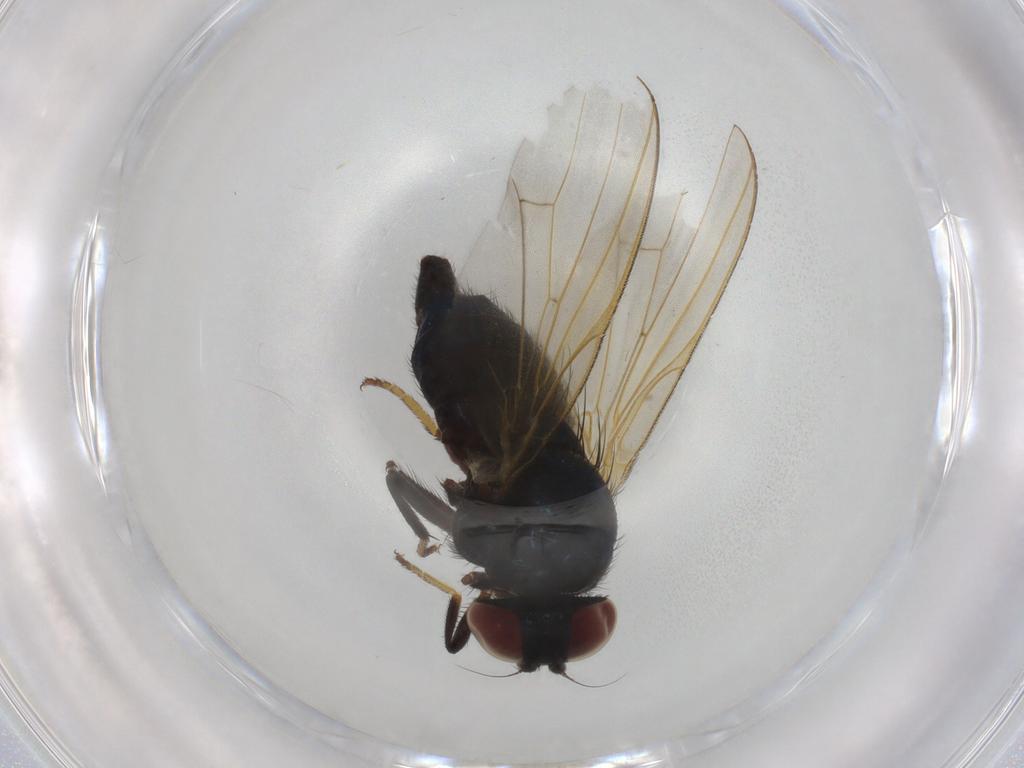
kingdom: Animalia
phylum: Arthropoda
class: Insecta
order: Diptera
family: Lonchaeidae
